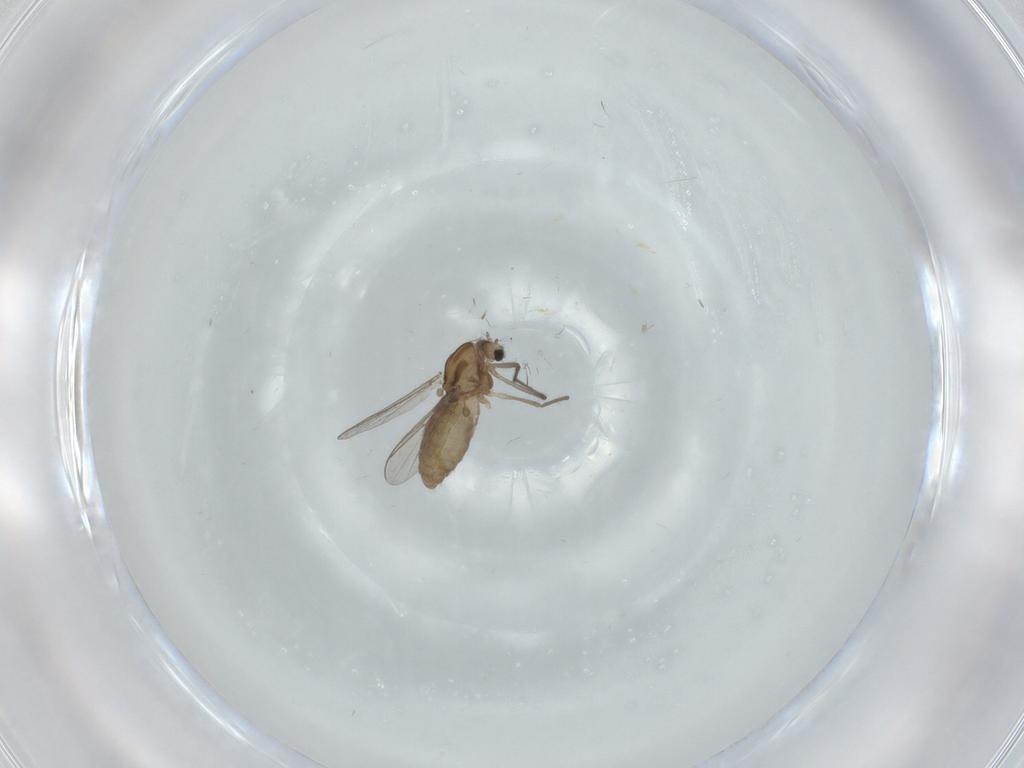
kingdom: Animalia
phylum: Arthropoda
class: Insecta
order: Diptera
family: Chironomidae
